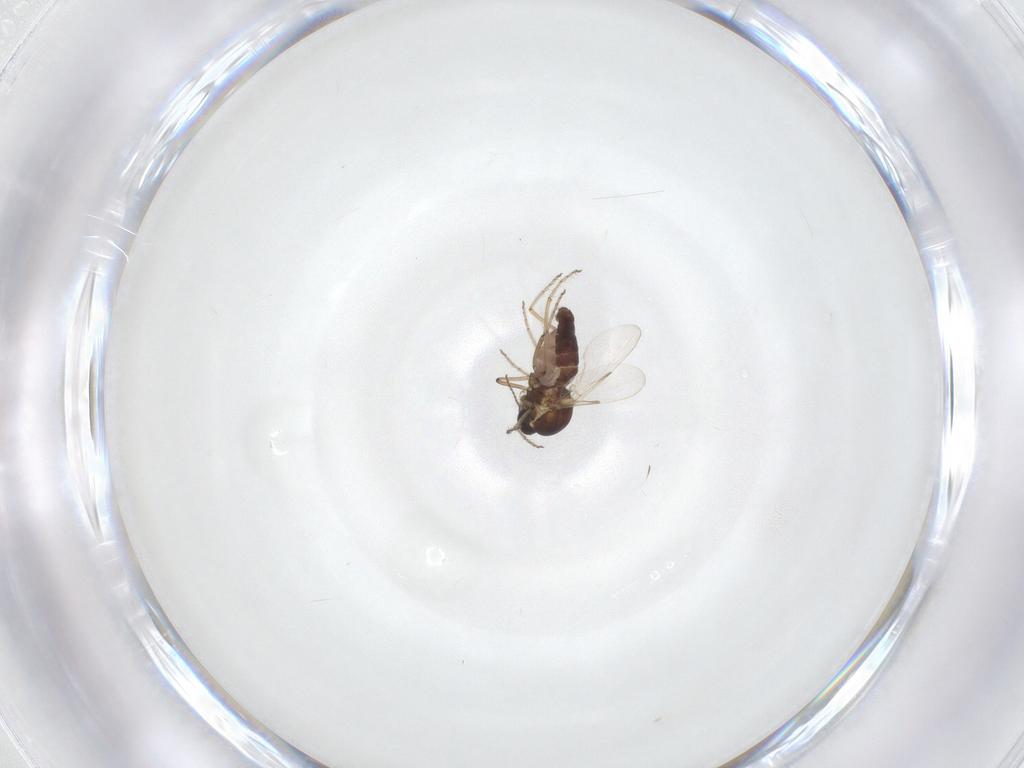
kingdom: Animalia
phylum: Arthropoda
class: Insecta
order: Diptera
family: Ceratopogonidae
